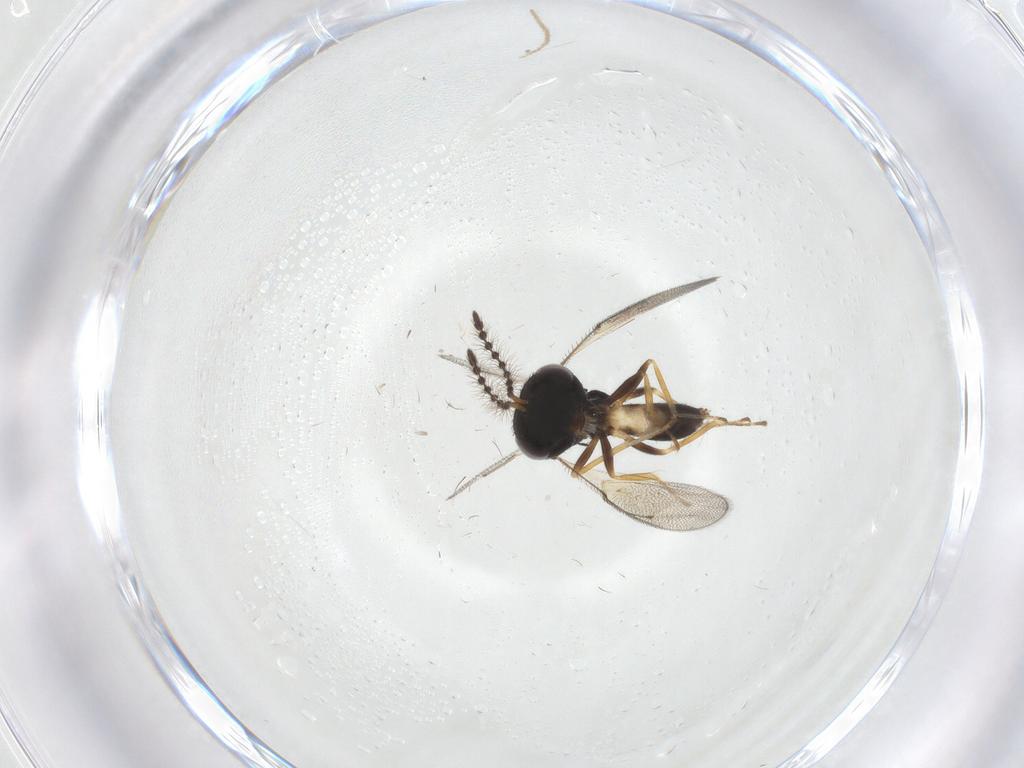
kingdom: Animalia
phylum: Arthropoda
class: Insecta
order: Hymenoptera
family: Pteromalidae
